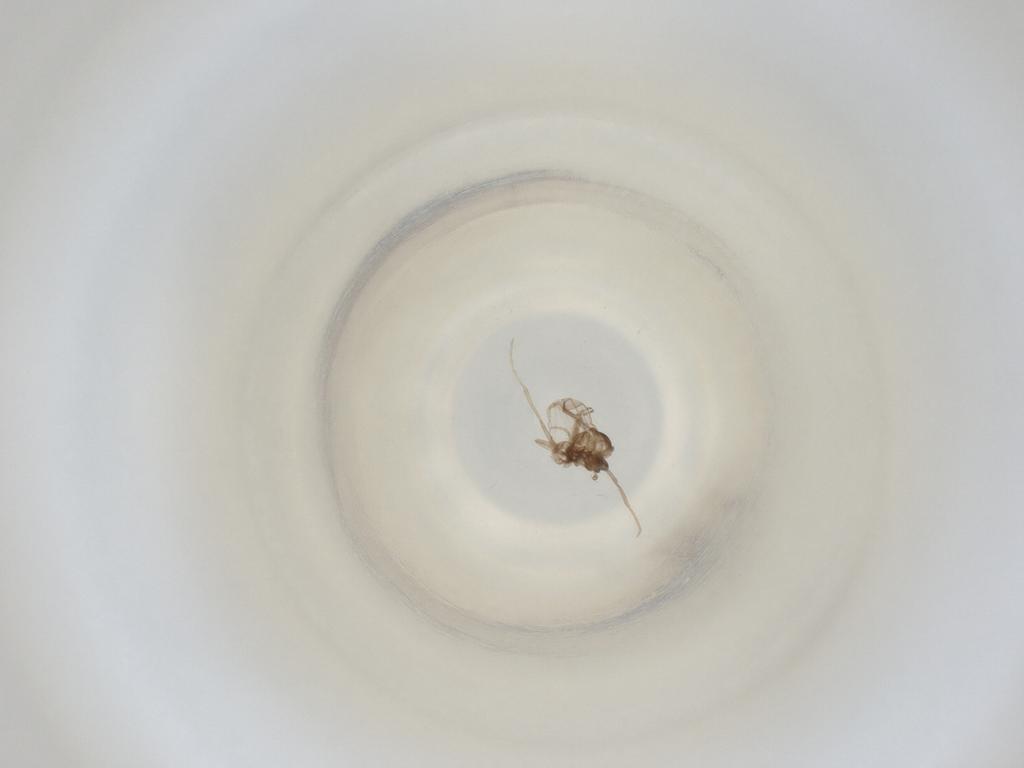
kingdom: Animalia
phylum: Arthropoda
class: Insecta
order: Diptera
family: Cecidomyiidae
